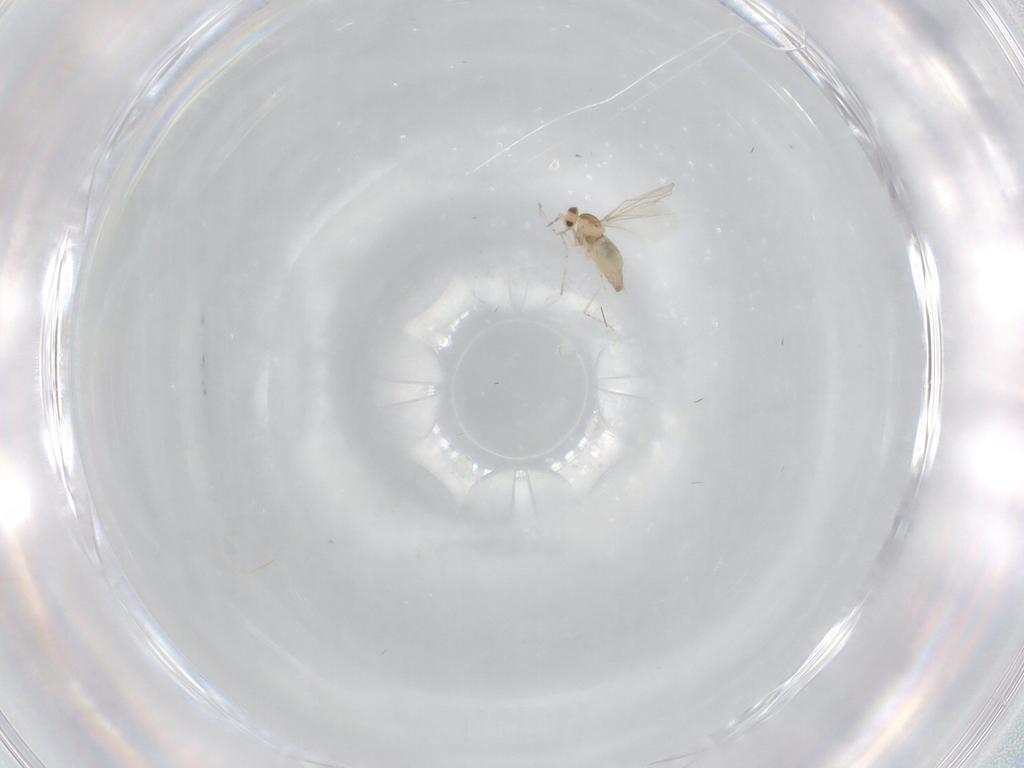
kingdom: Animalia
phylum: Arthropoda
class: Insecta
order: Diptera
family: Cecidomyiidae
